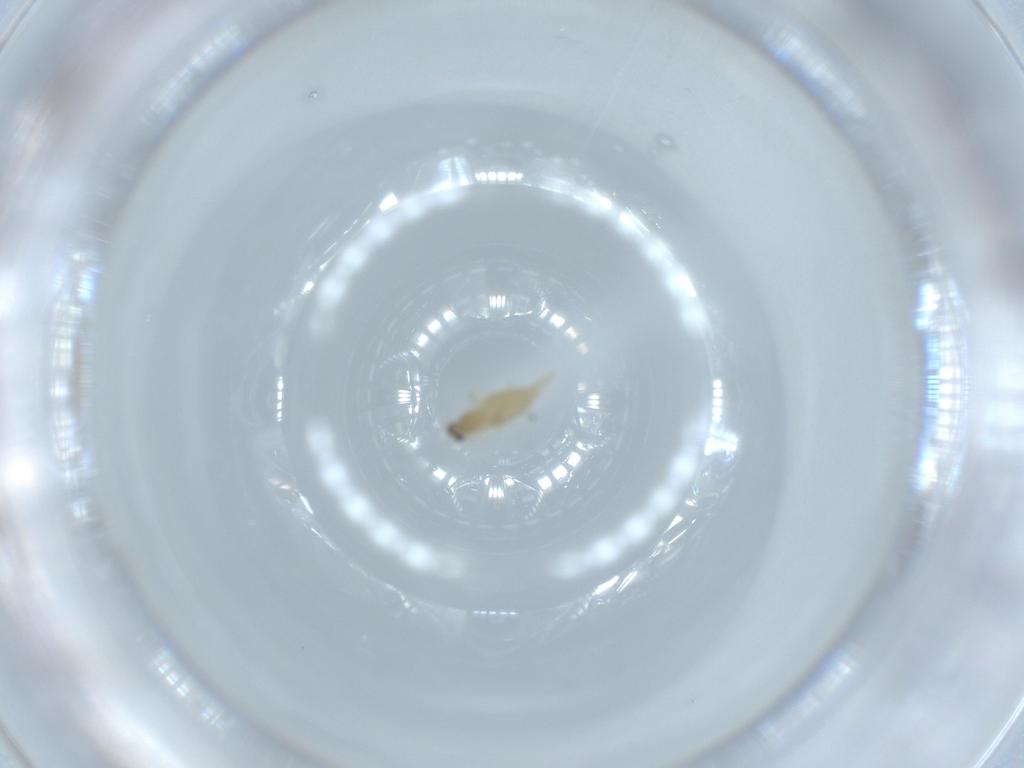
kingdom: Animalia
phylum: Arthropoda
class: Insecta
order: Diptera
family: Cecidomyiidae
